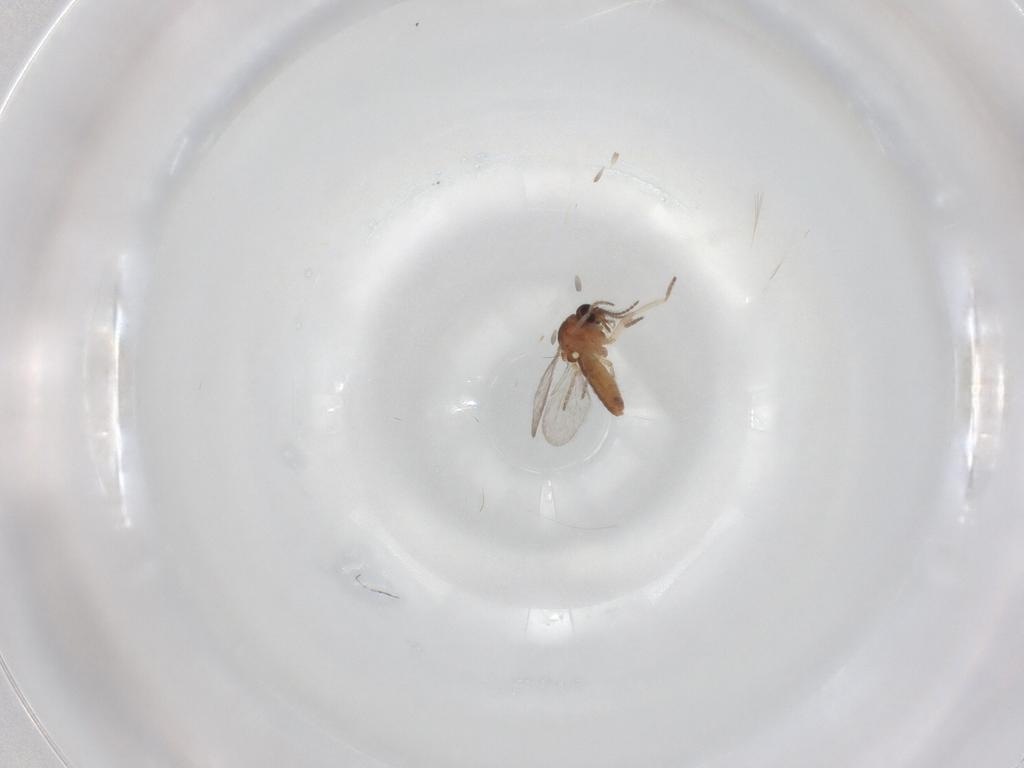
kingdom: Animalia
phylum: Arthropoda
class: Insecta
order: Diptera
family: Ceratopogonidae
